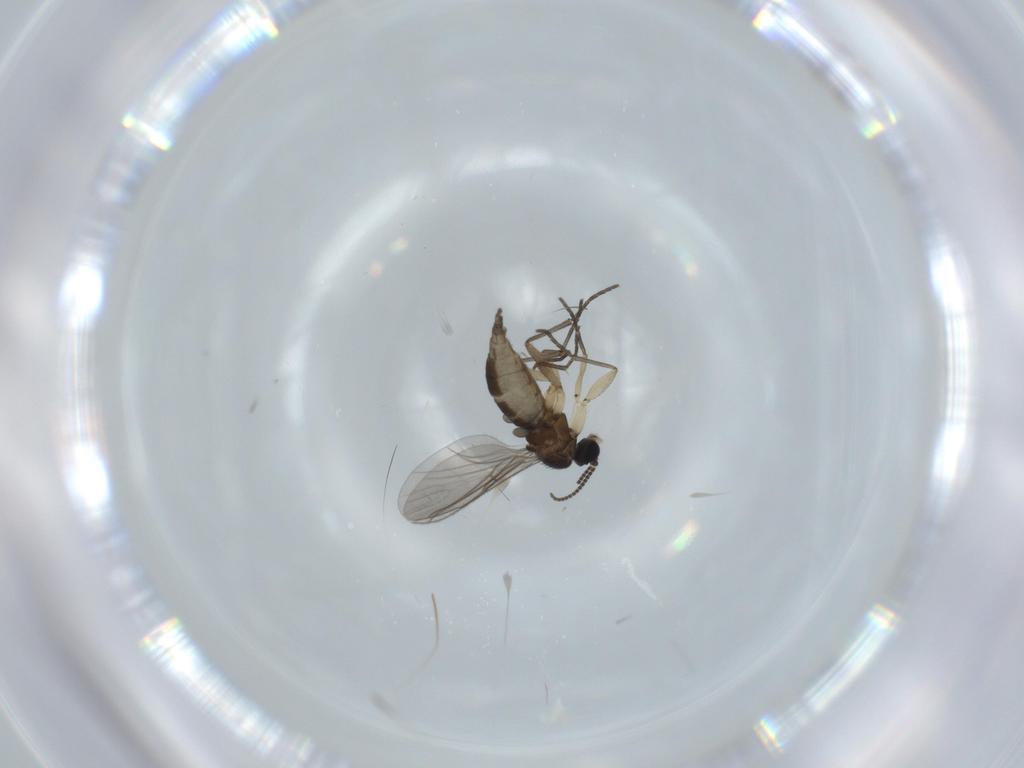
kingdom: Animalia
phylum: Arthropoda
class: Insecta
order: Diptera
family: Sciaridae
